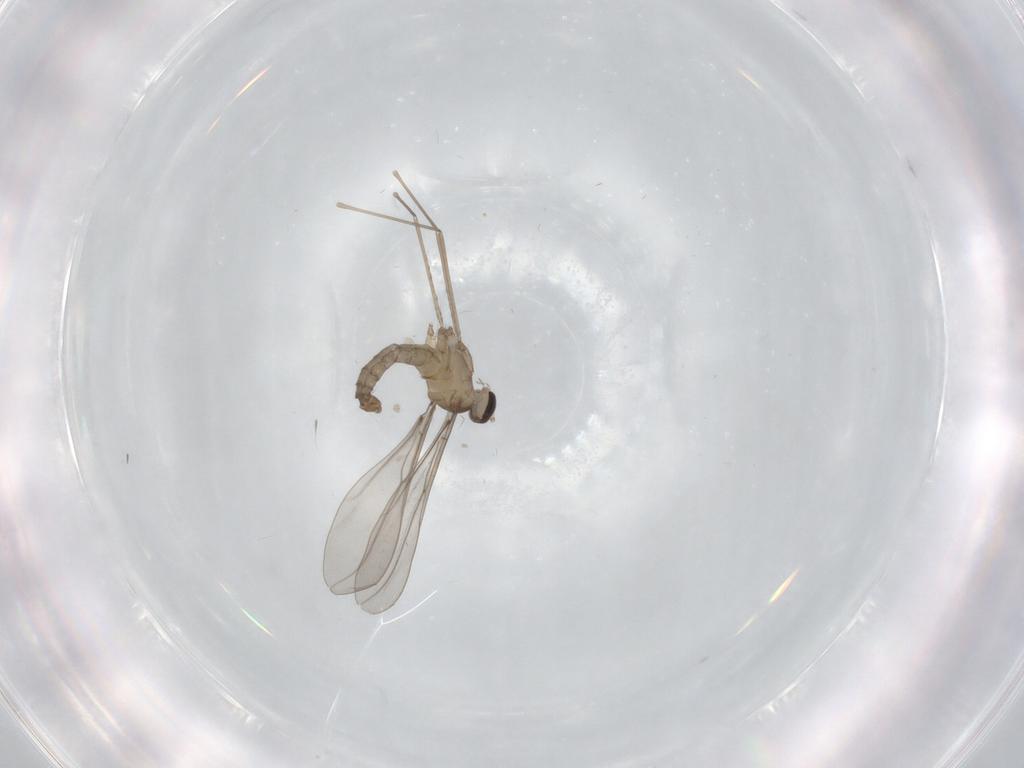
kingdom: Animalia
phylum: Arthropoda
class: Insecta
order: Diptera
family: Cecidomyiidae
